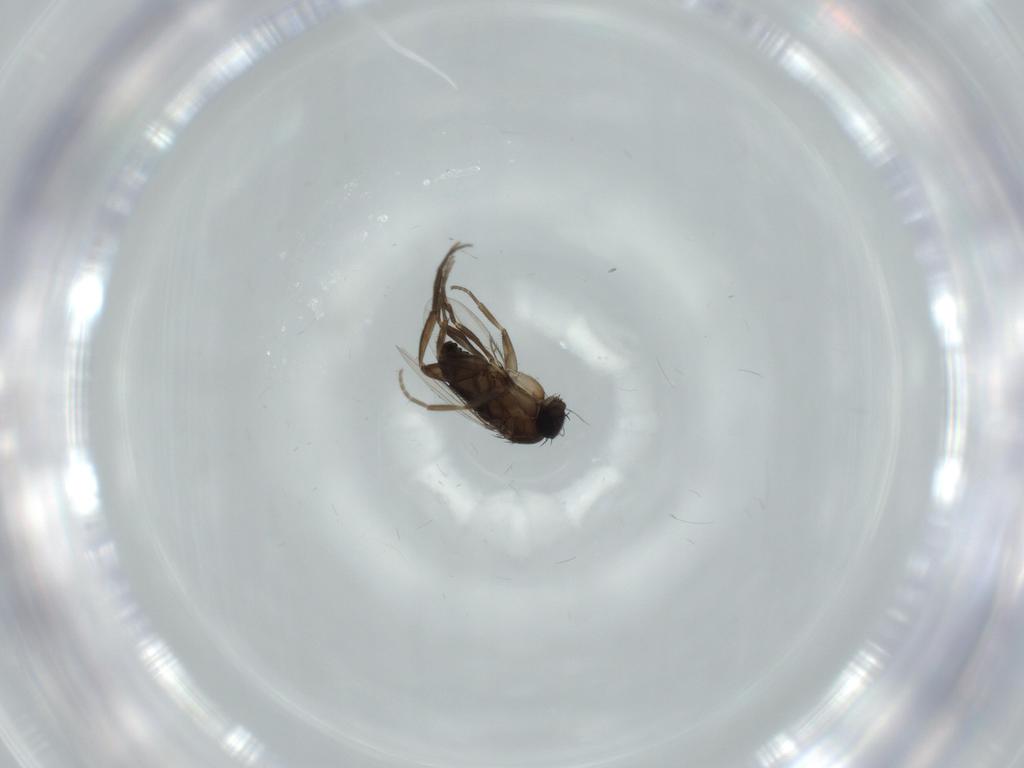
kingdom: Animalia
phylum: Arthropoda
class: Insecta
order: Diptera
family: Phoridae
